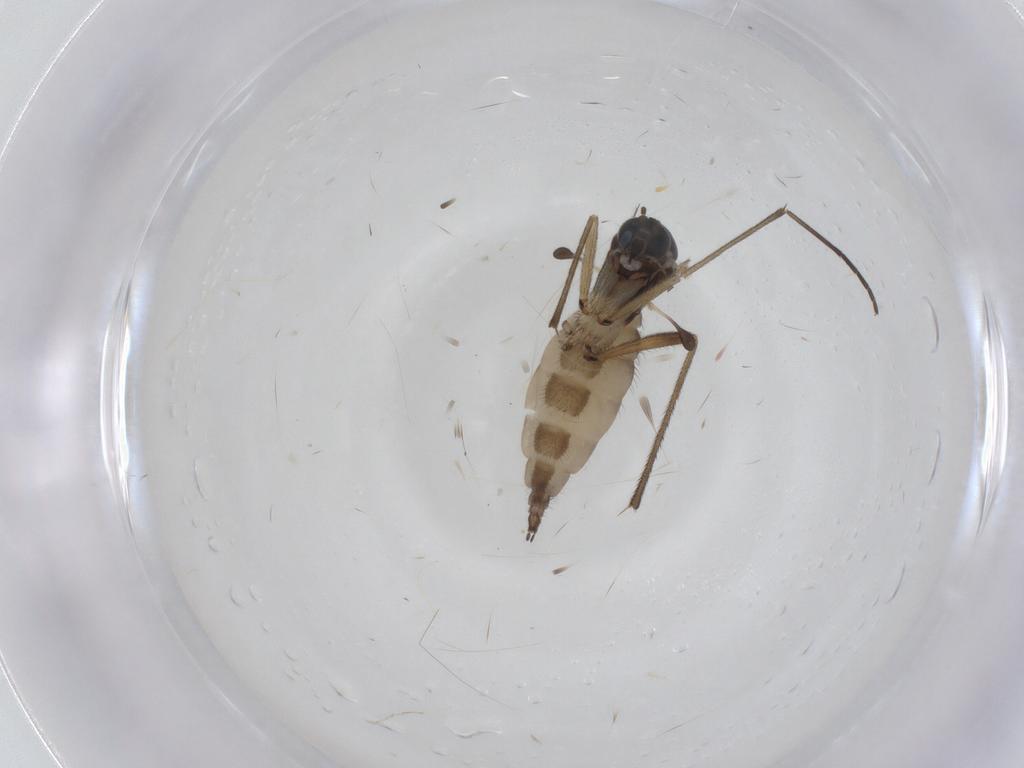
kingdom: Animalia
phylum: Arthropoda
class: Insecta
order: Diptera
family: Sciaridae
